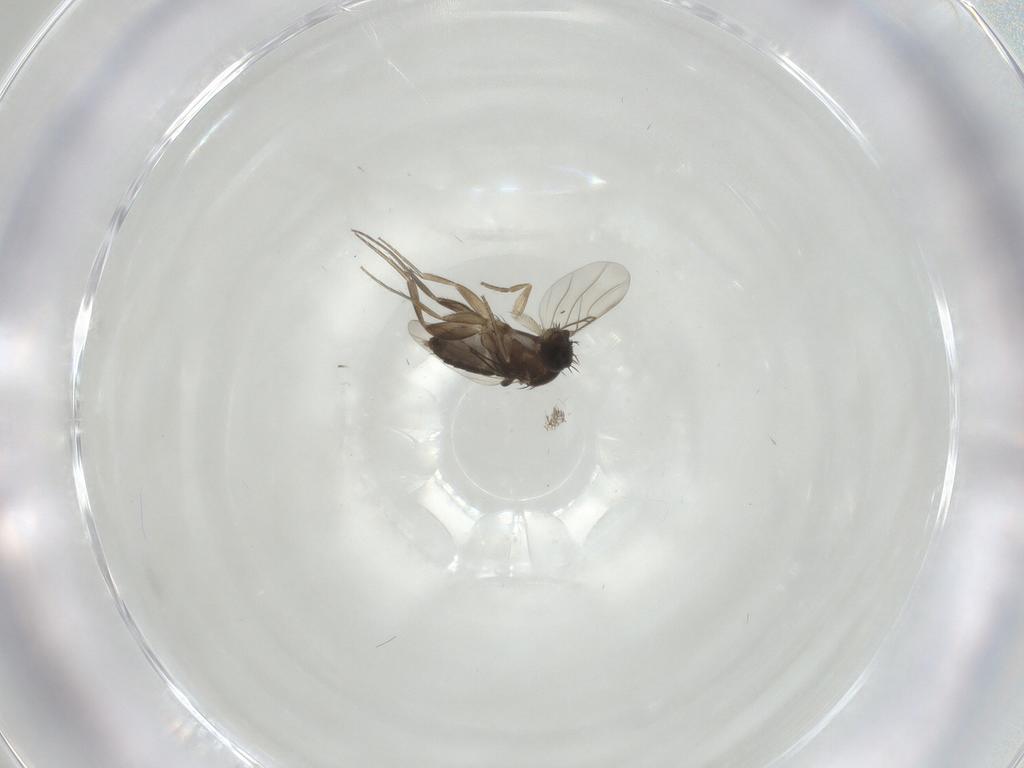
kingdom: Animalia
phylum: Arthropoda
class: Insecta
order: Diptera
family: Phoridae
